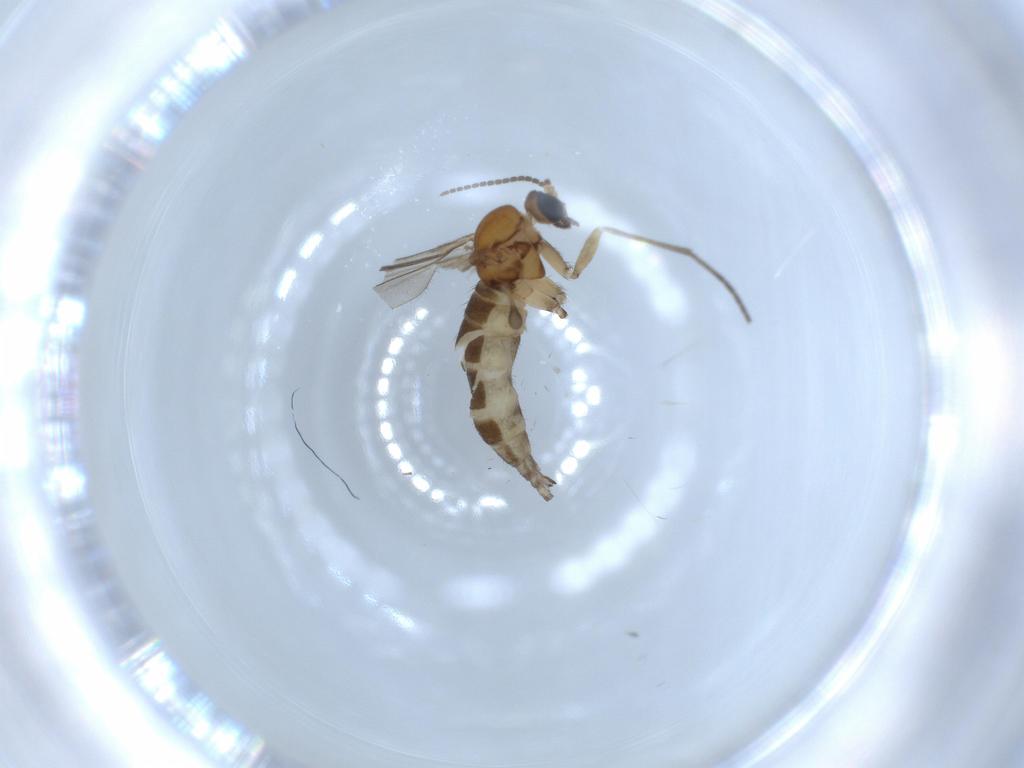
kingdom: Animalia
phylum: Arthropoda
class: Insecta
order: Diptera
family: Sciaridae
